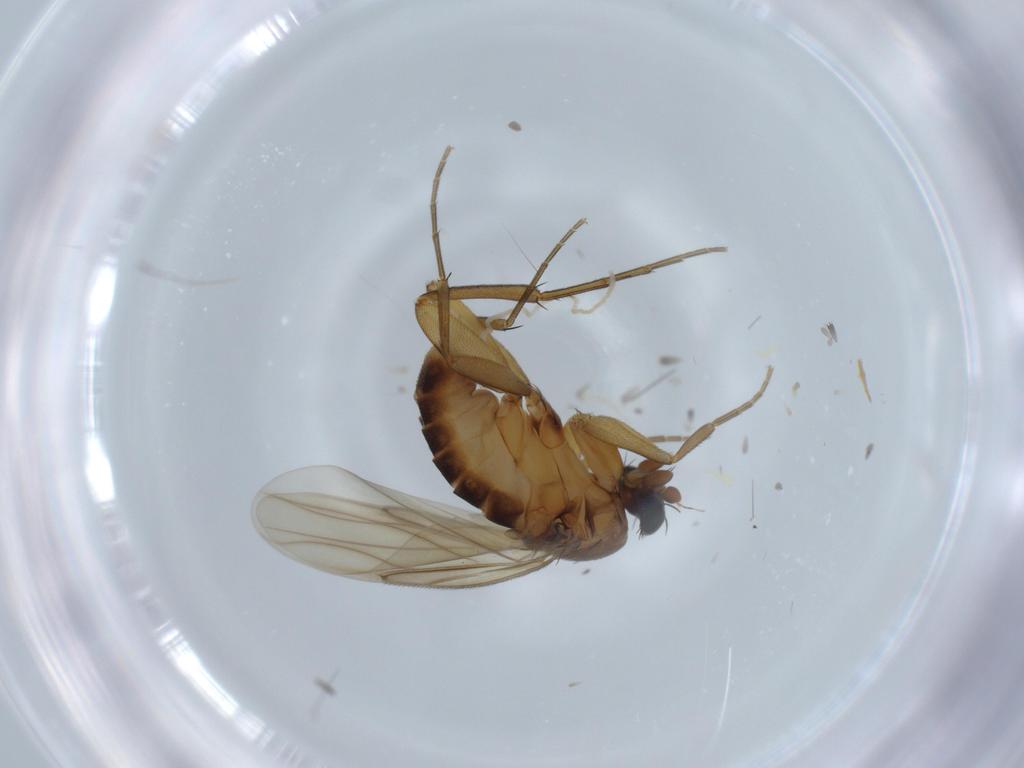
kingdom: Animalia
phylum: Arthropoda
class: Insecta
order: Diptera
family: Phoridae
